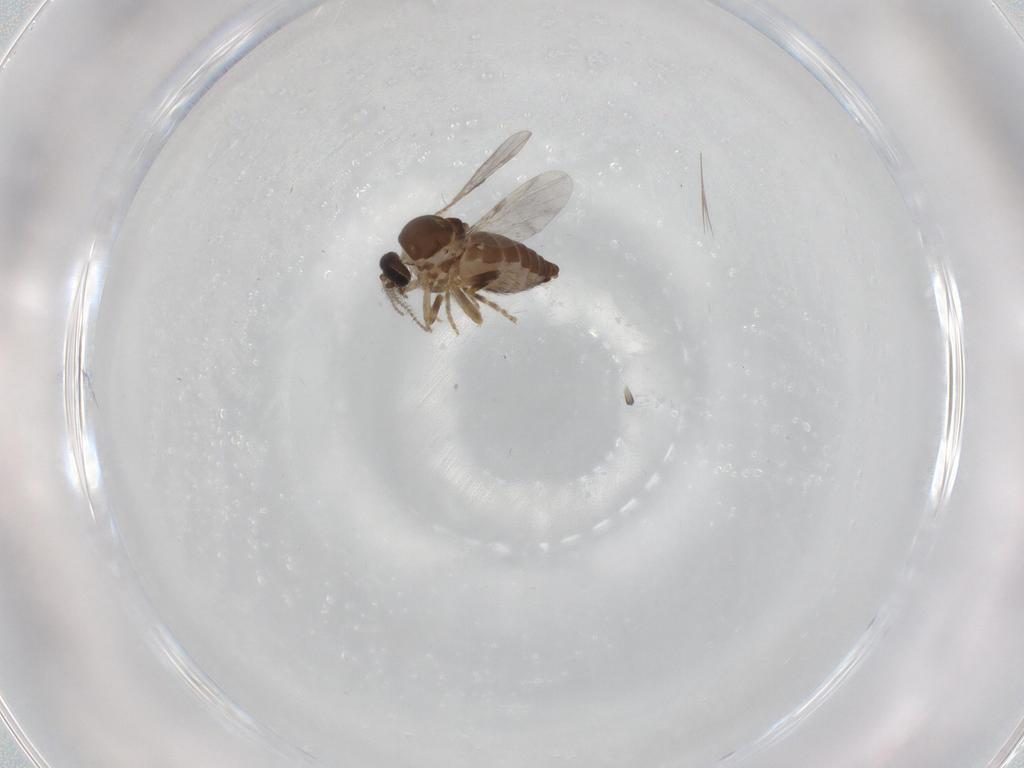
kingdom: Animalia
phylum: Arthropoda
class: Insecta
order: Diptera
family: Ceratopogonidae
